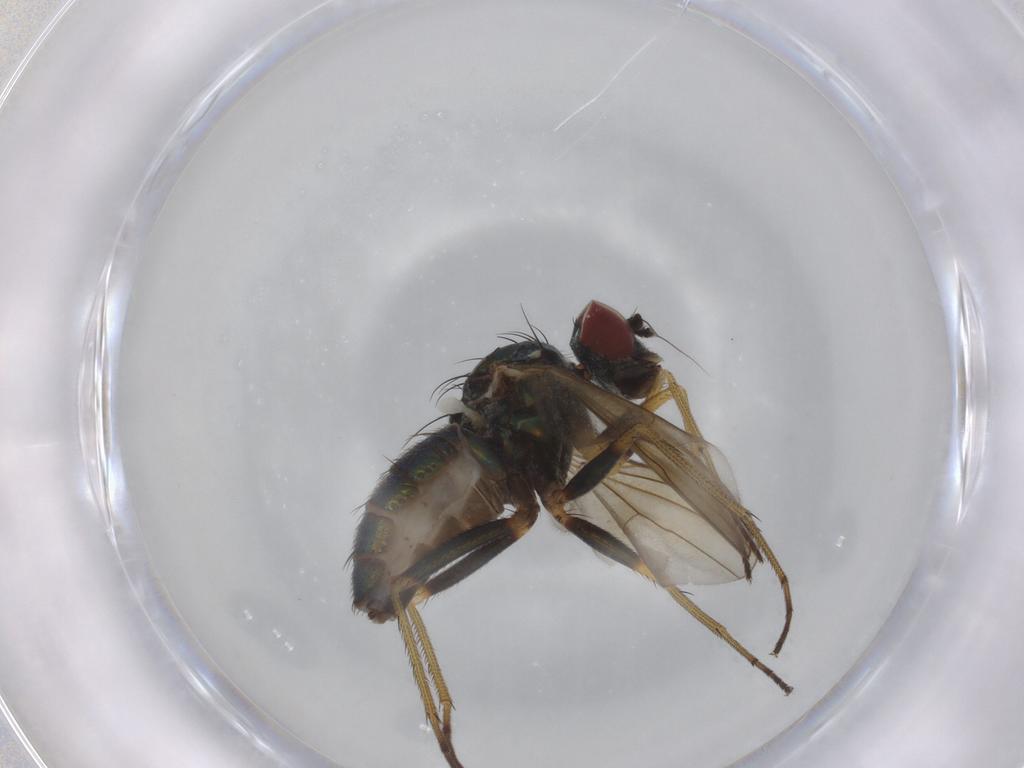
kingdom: Animalia
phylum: Arthropoda
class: Insecta
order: Diptera
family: Dolichopodidae
